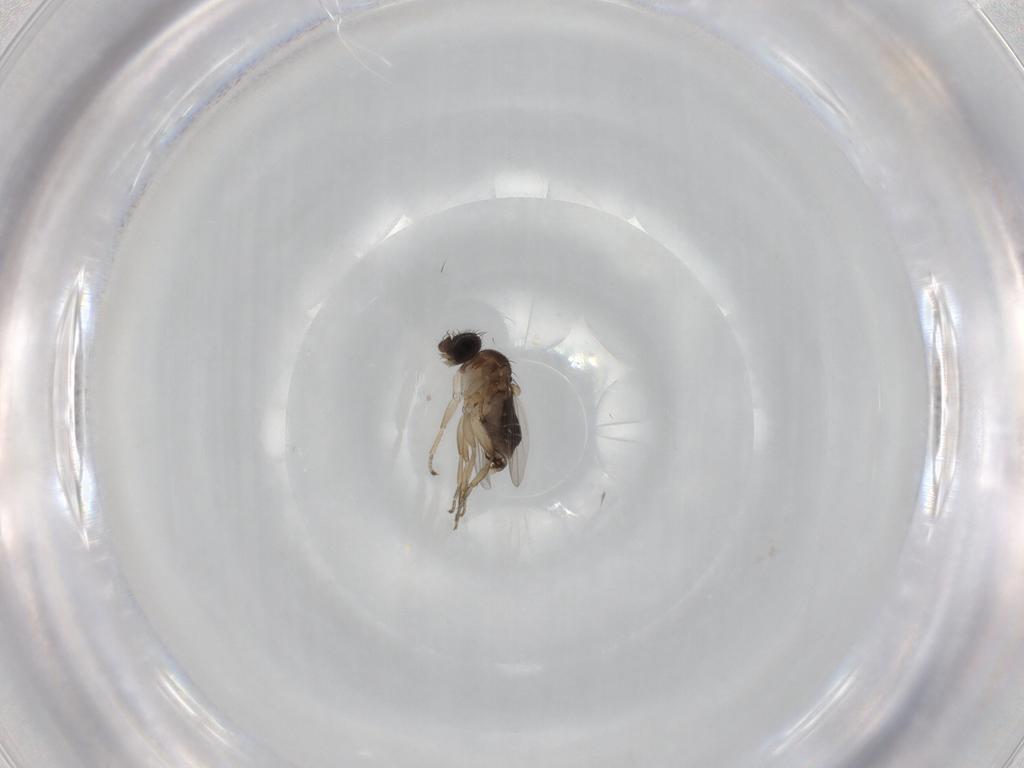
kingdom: Animalia
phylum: Arthropoda
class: Insecta
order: Diptera
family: Phoridae
